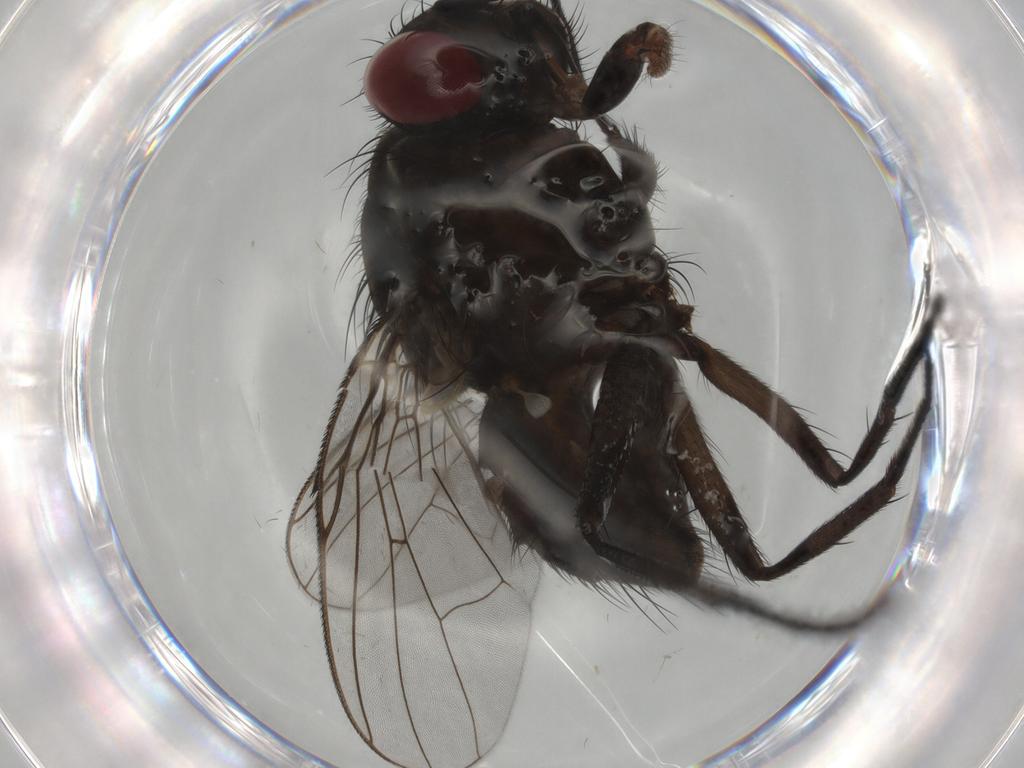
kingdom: Animalia
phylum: Arthropoda
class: Insecta
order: Diptera
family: Muscidae
